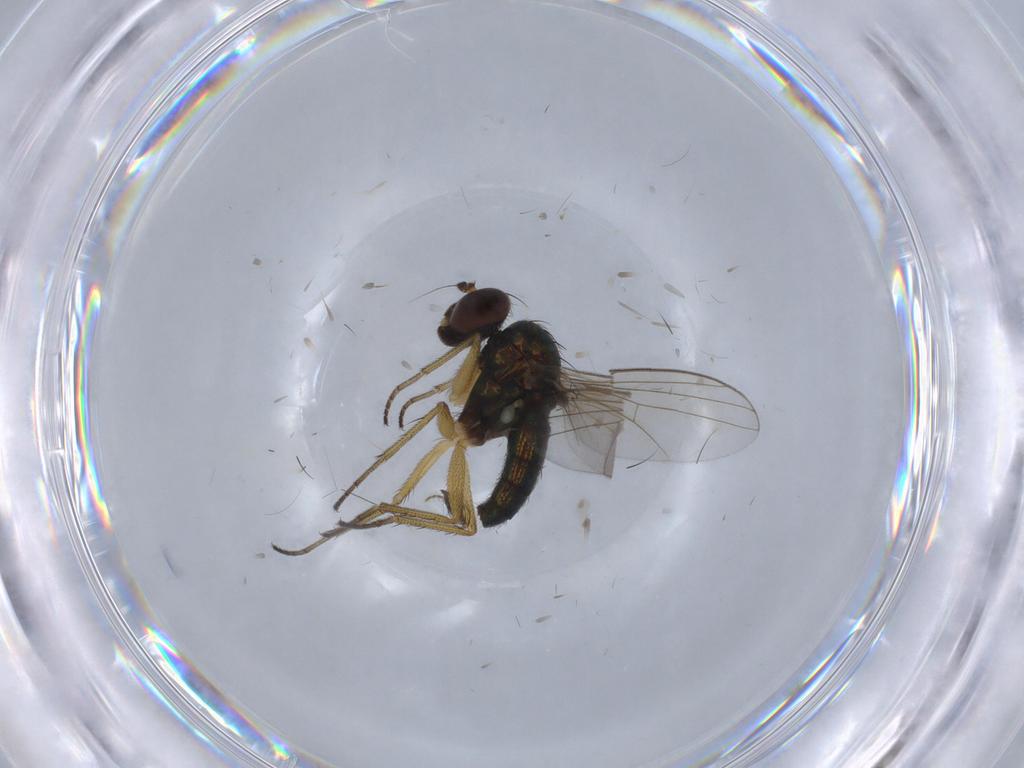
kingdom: Animalia
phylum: Arthropoda
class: Insecta
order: Diptera
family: Ceratopogonidae
